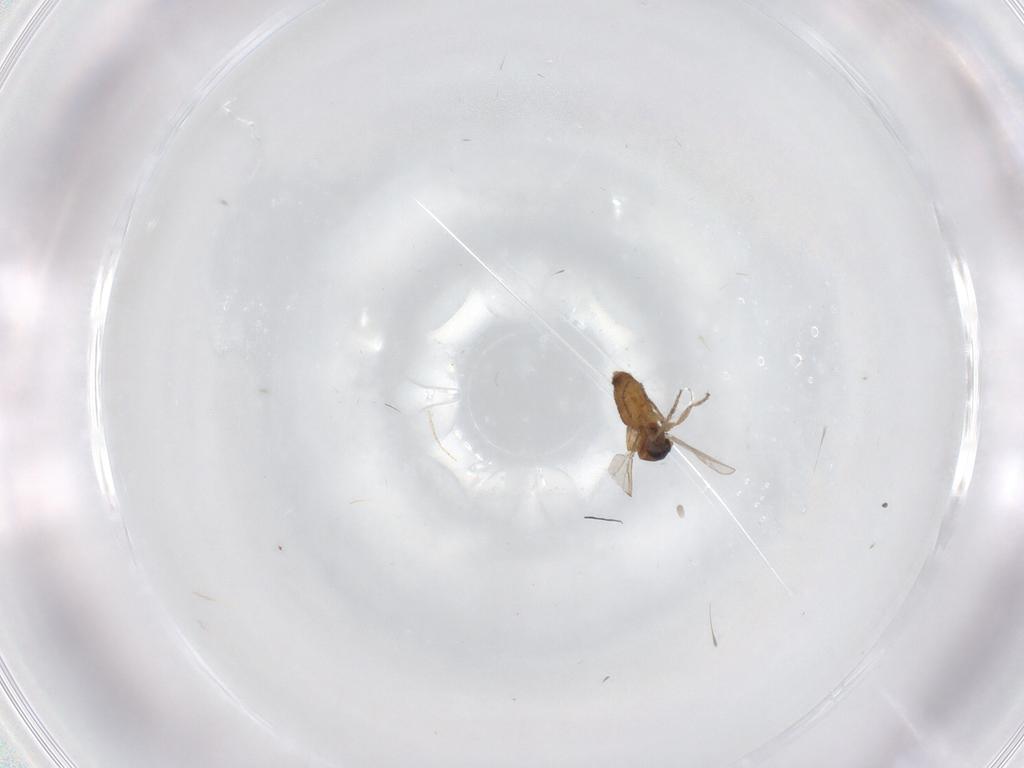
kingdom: Animalia
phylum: Arthropoda
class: Insecta
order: Diptera
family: Ceratopogonidae
